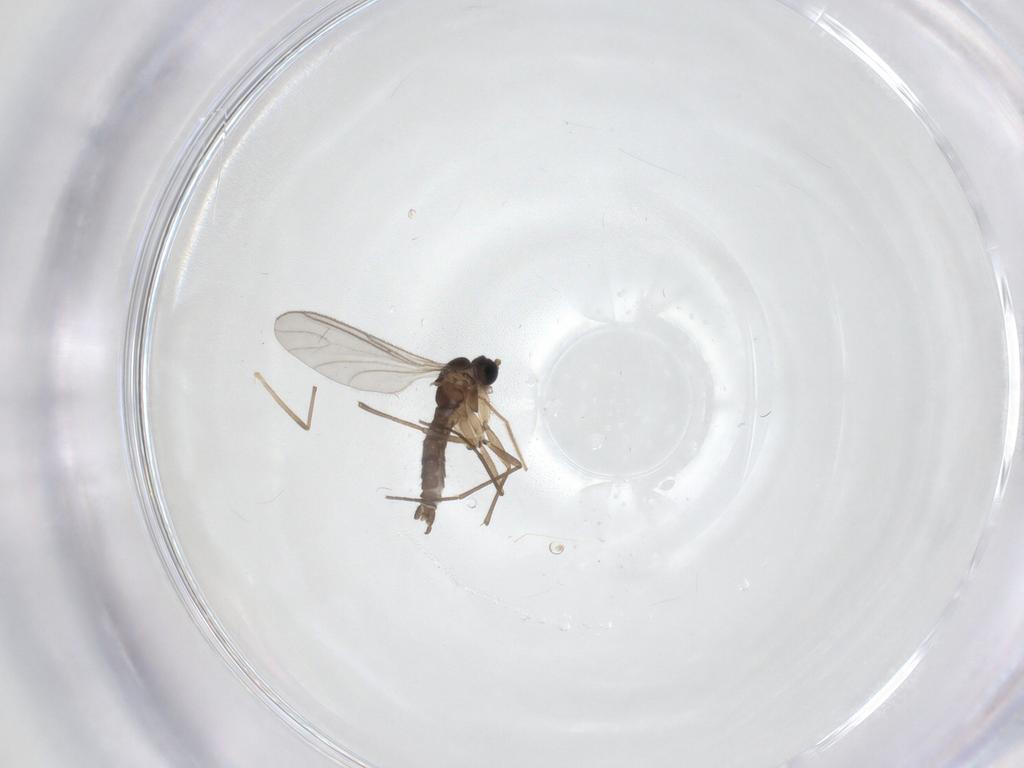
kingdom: Animalia
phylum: Arthropoda
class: Insecta
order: Diptera
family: Sciaridae
